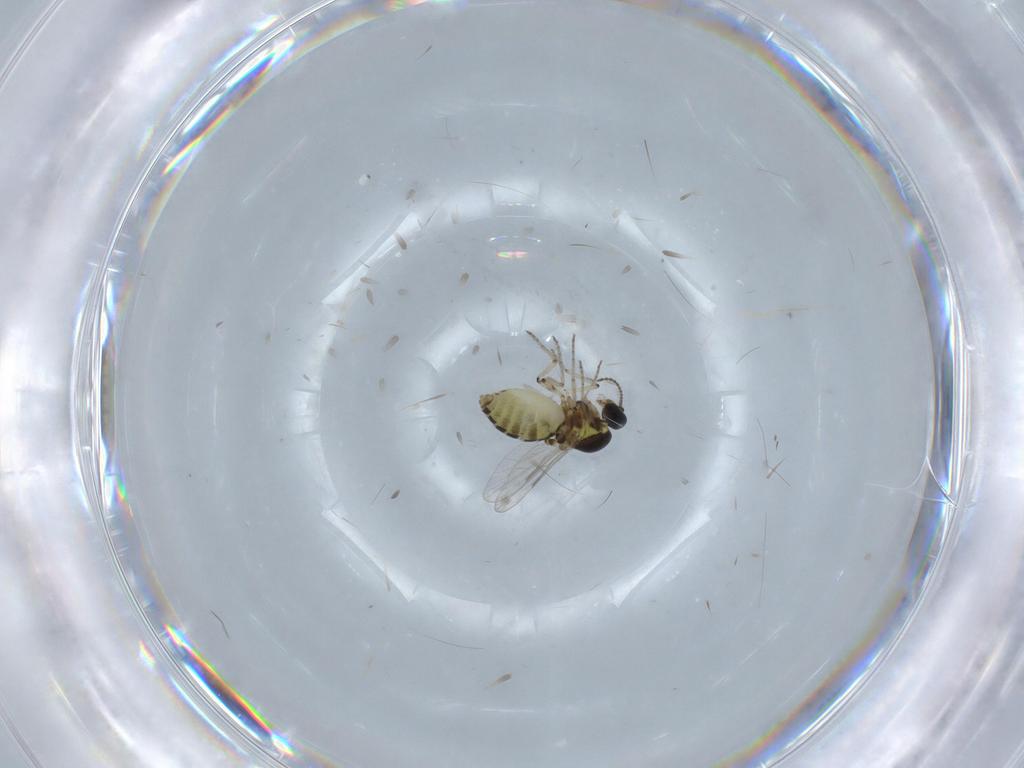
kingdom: Animalia
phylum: Arthropoda
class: Insecta
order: Diptera
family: Chironomidae
